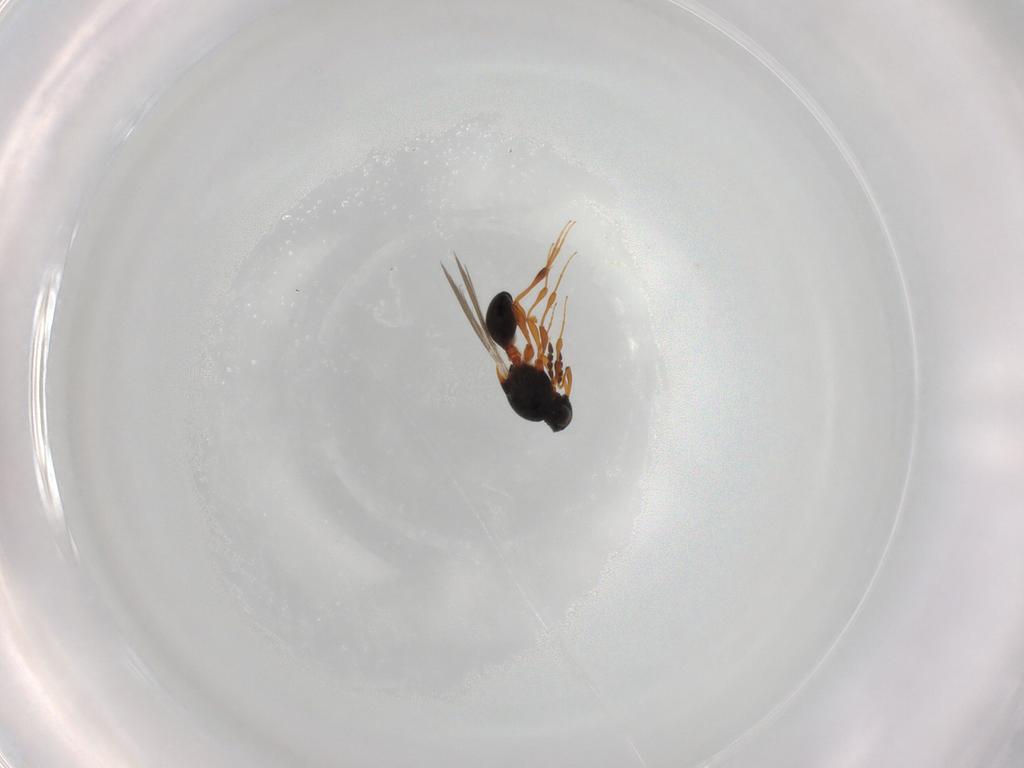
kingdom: Animalia
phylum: Arthropoda
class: Insecta
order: Hymenoptera
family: Platygastridae
